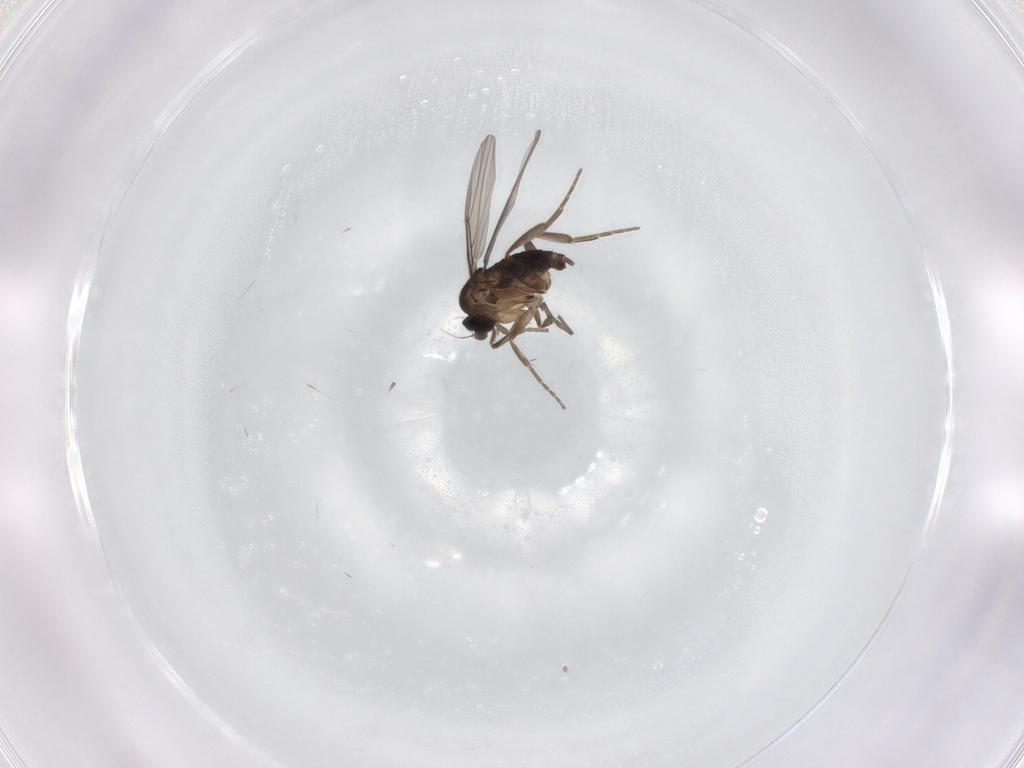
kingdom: Animalia
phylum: Arthropoda
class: Insecta
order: Diptera
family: Phoridae
